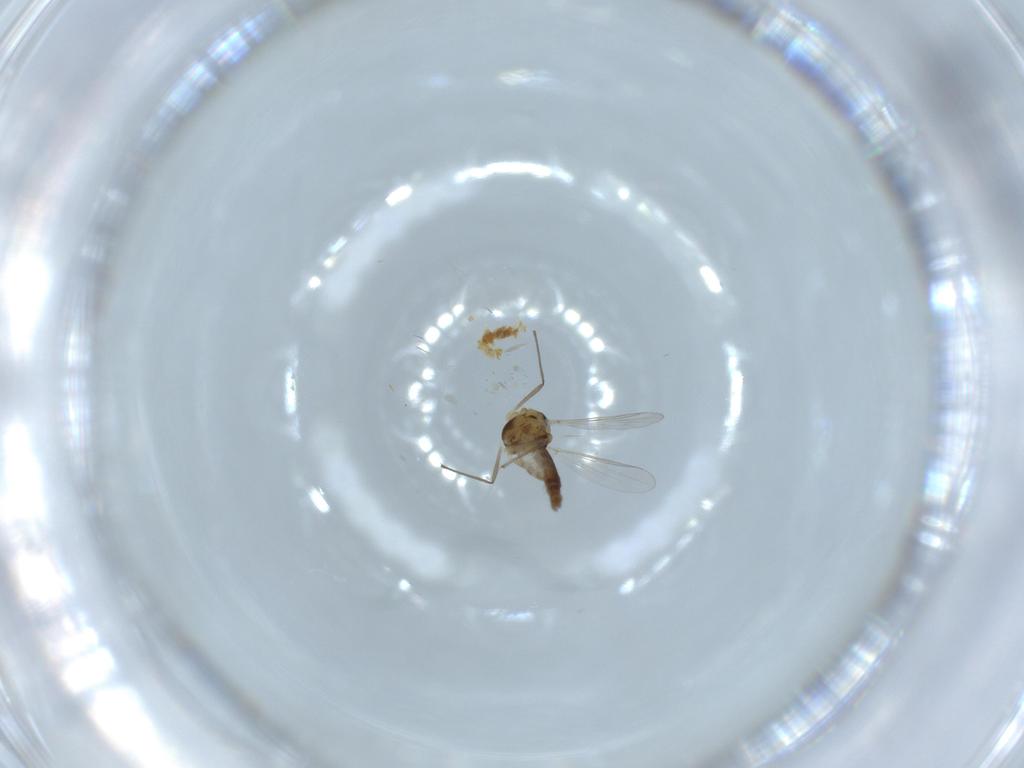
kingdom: Animalia
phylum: Arthropoda
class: Insecta
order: Diptera
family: Chironomidae
